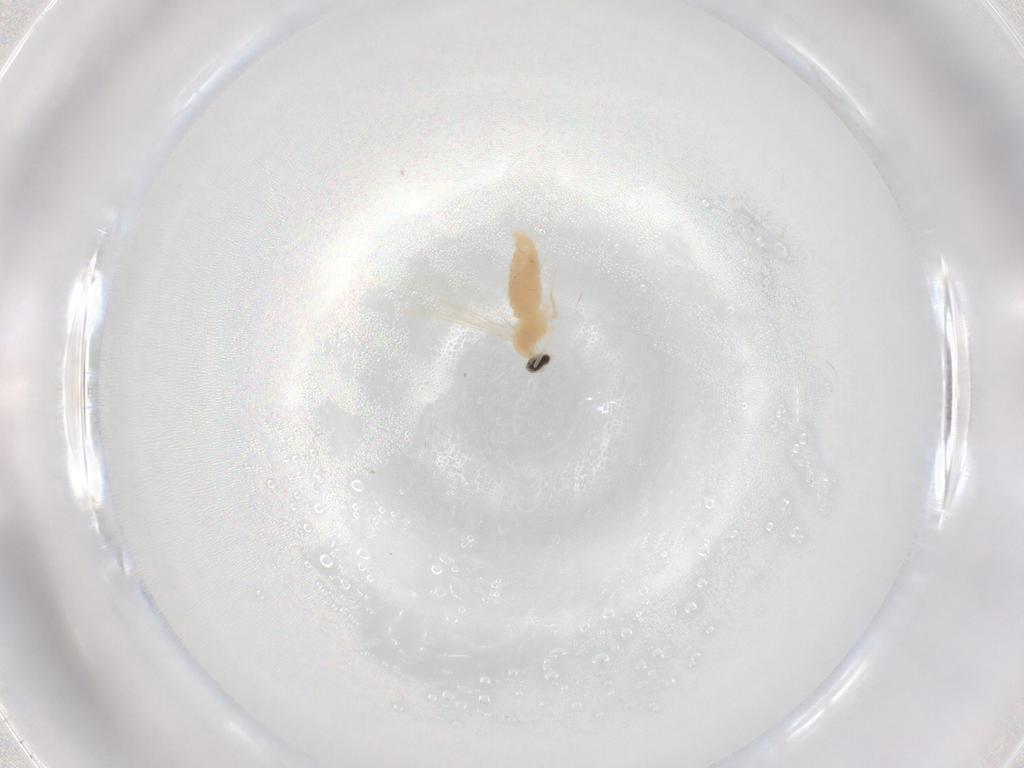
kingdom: Animalia
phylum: Arthropoda
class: Insecta
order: Diptera
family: Cecidomyiidae
